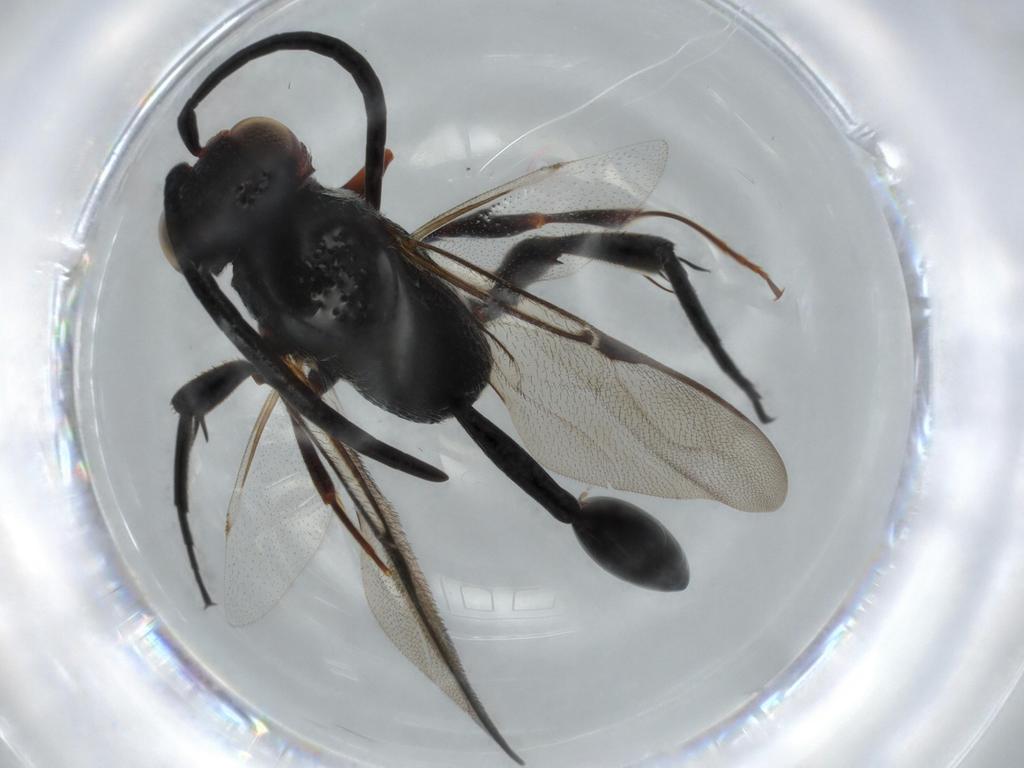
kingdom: Animalia
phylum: Arthropoda
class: Insecta
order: Hymenoptera
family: Evaniidae
